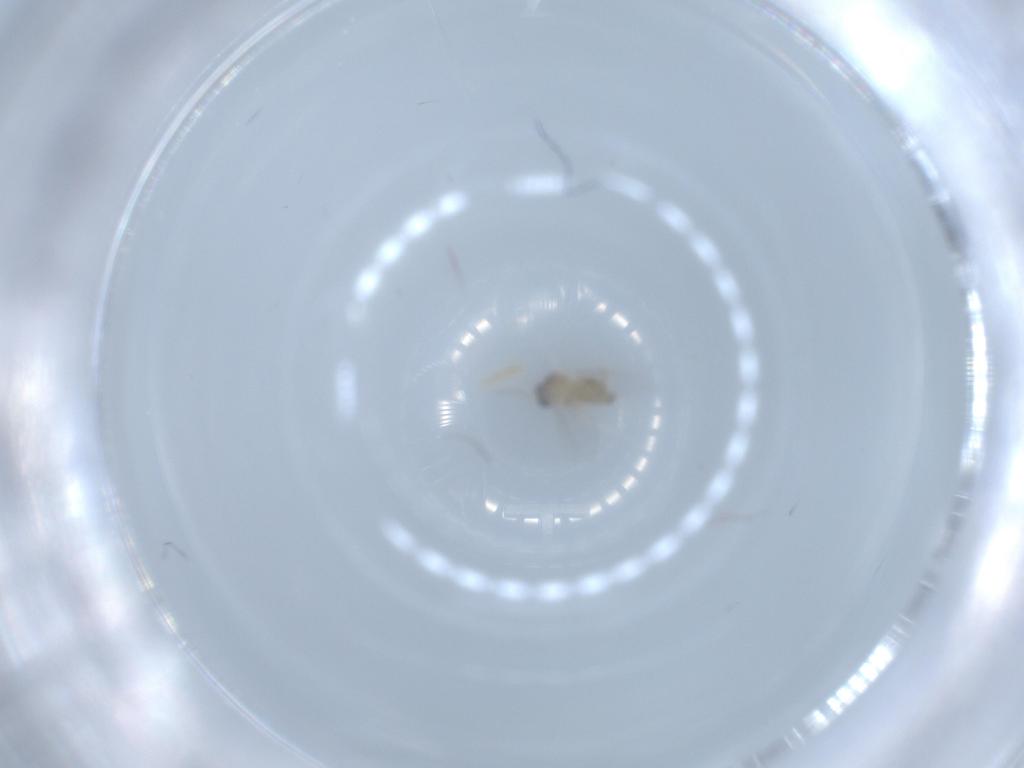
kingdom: Animalia
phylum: Arthropoda
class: Insecta
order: Diptera
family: Cecidomyiidae
